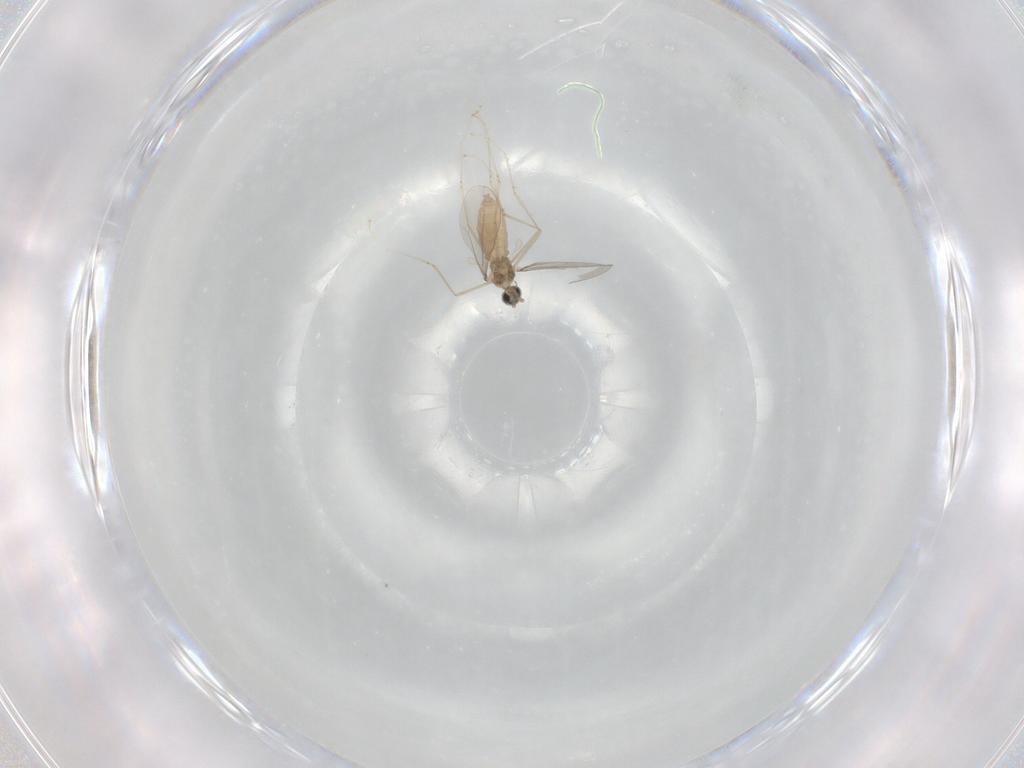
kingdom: Animalia
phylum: Arthropoda
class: Insecta
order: Diptera
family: Cecidomyiidae
